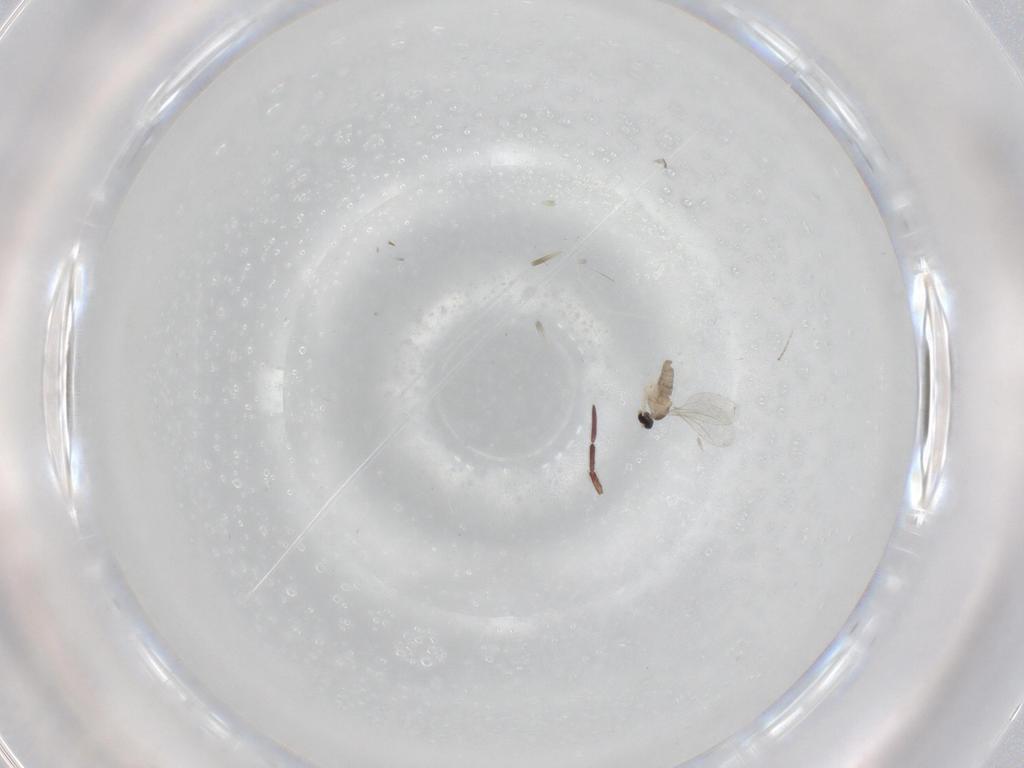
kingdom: Animalia
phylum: Arthropoda
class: Insecta
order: Diptera
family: Cecidomyiidae
